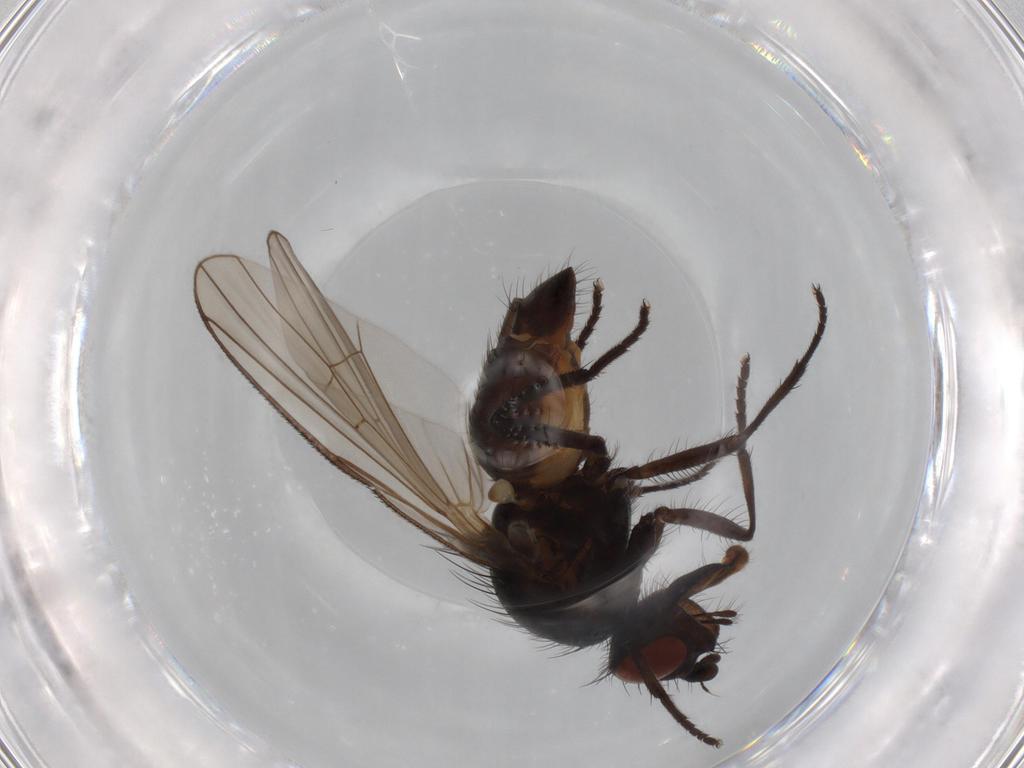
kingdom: Animalia
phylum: Arthropoda
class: Insecta
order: Diptera
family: Anthomyiidae
